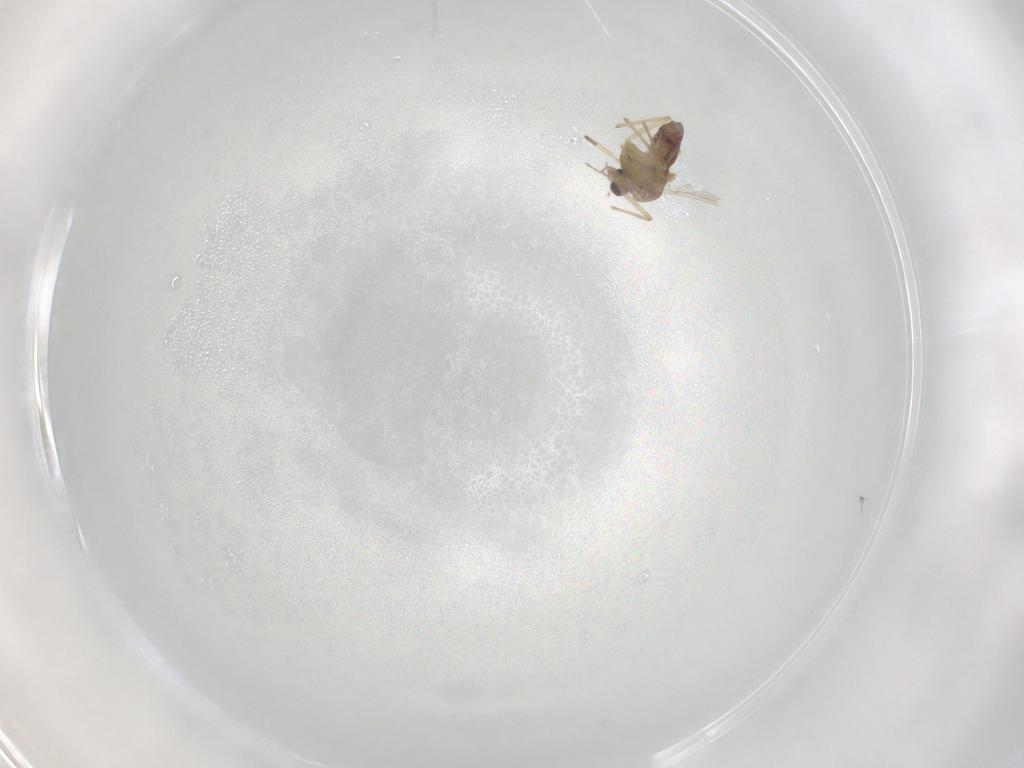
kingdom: Animalia
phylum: Arthropoda
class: Insecta
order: Diptera
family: Chironomidae
